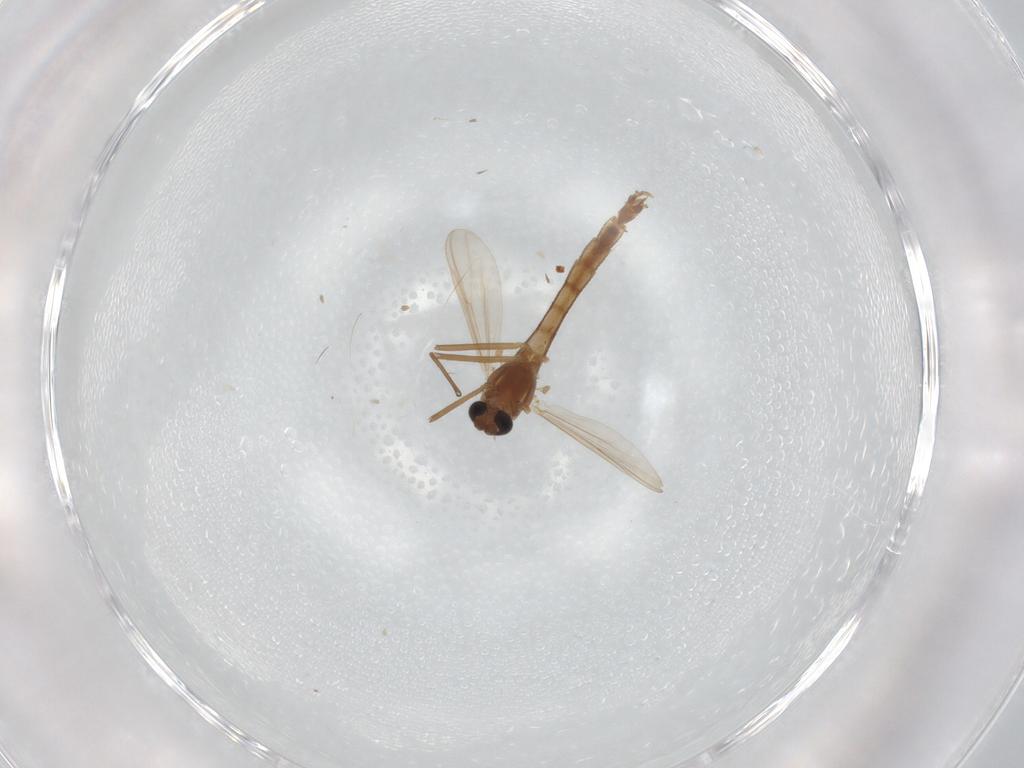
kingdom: Animalia
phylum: Arthropoda
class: Insecta
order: Diptera
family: Chironomidae
